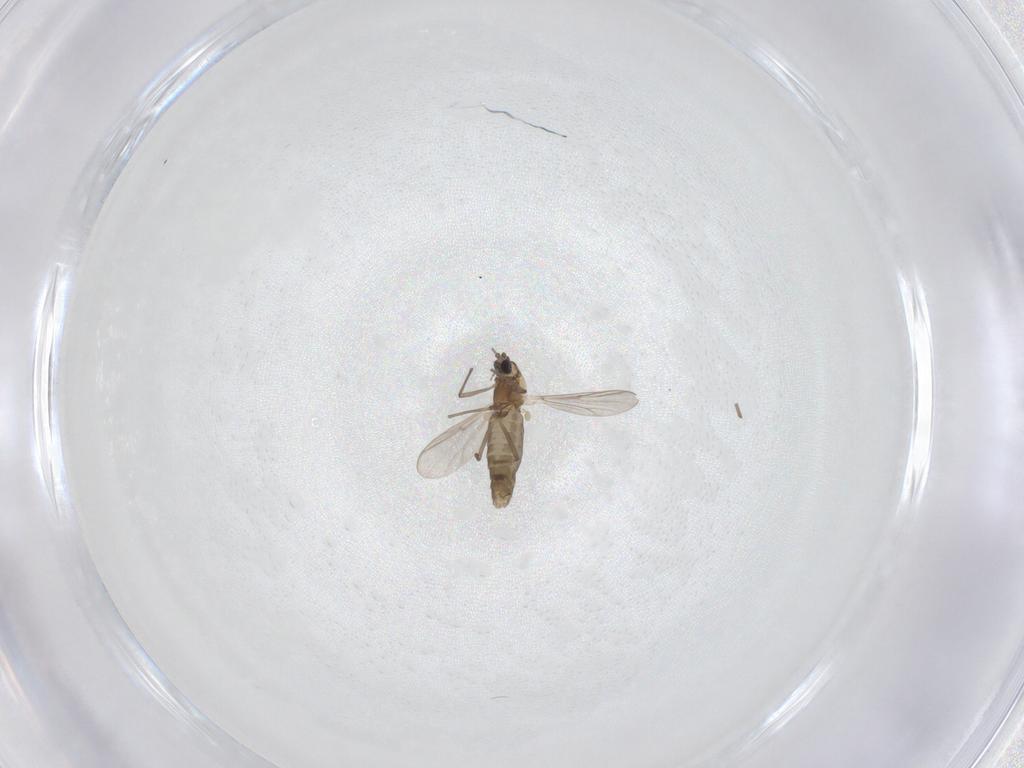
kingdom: Animalia
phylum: Arthropoda
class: Insecta
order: Diptera
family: Chironomidae
